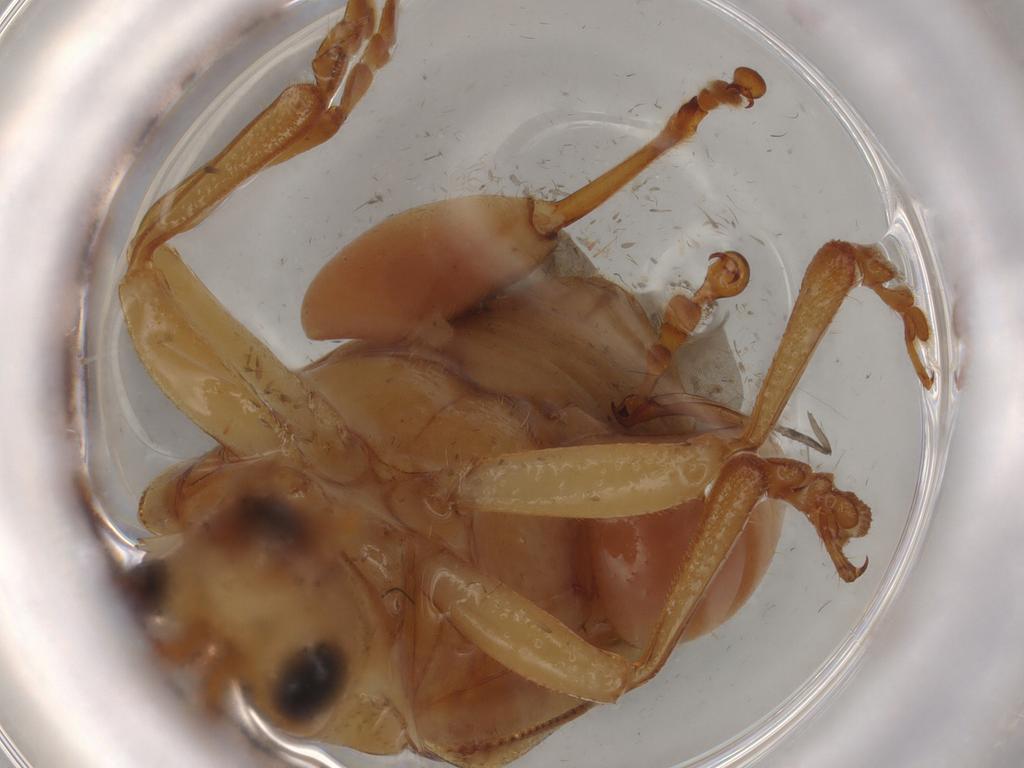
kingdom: Animalia
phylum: Arthropoda
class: Insecta
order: Coleoptera
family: Chrysomelidae
